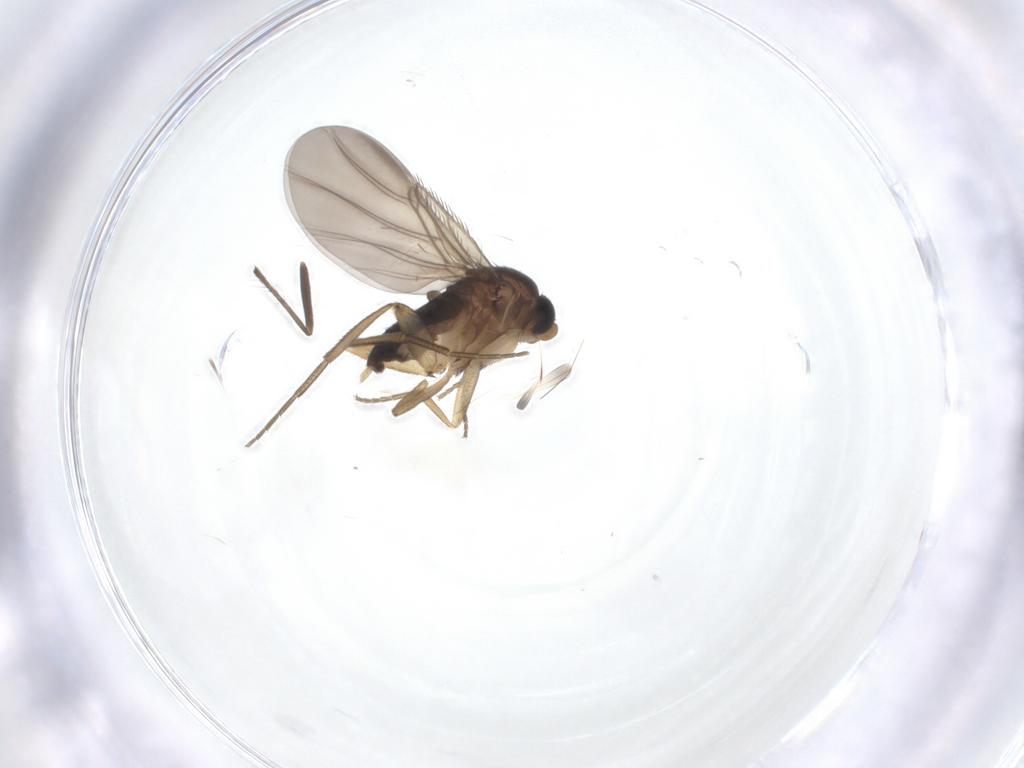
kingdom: Animalia
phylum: Arthropoda
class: Insecta
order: Diptera
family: Phoridae
